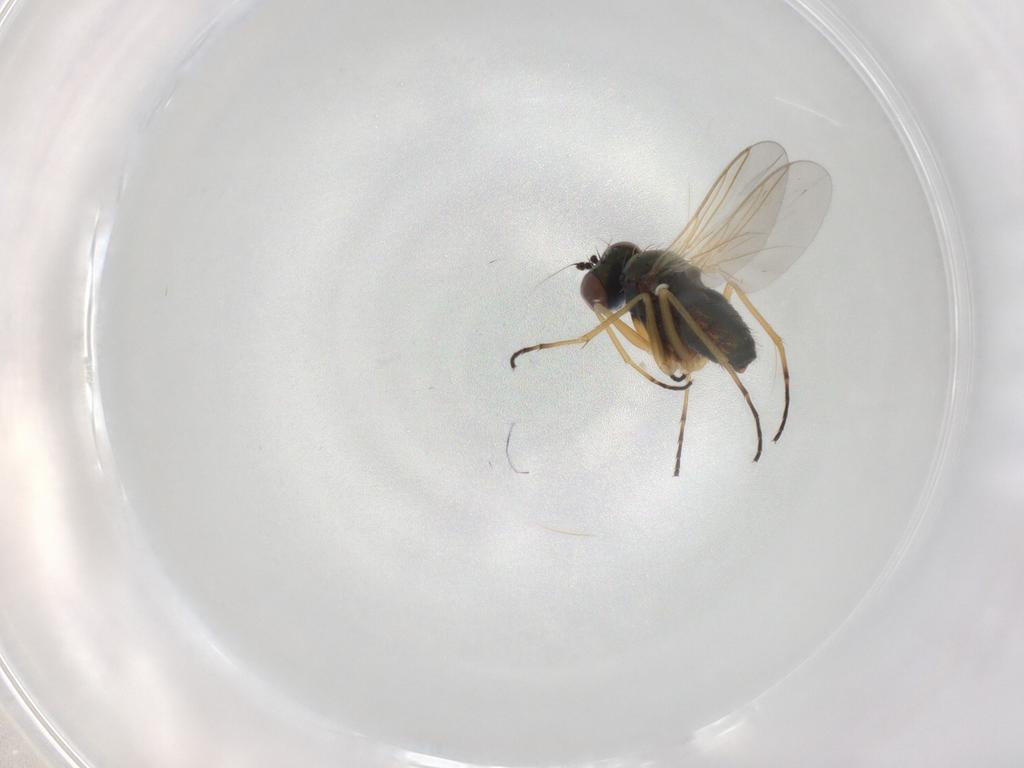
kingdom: Animalia
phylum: Arthropoda
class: Insecta
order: Diptera
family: Dolichopodidae
